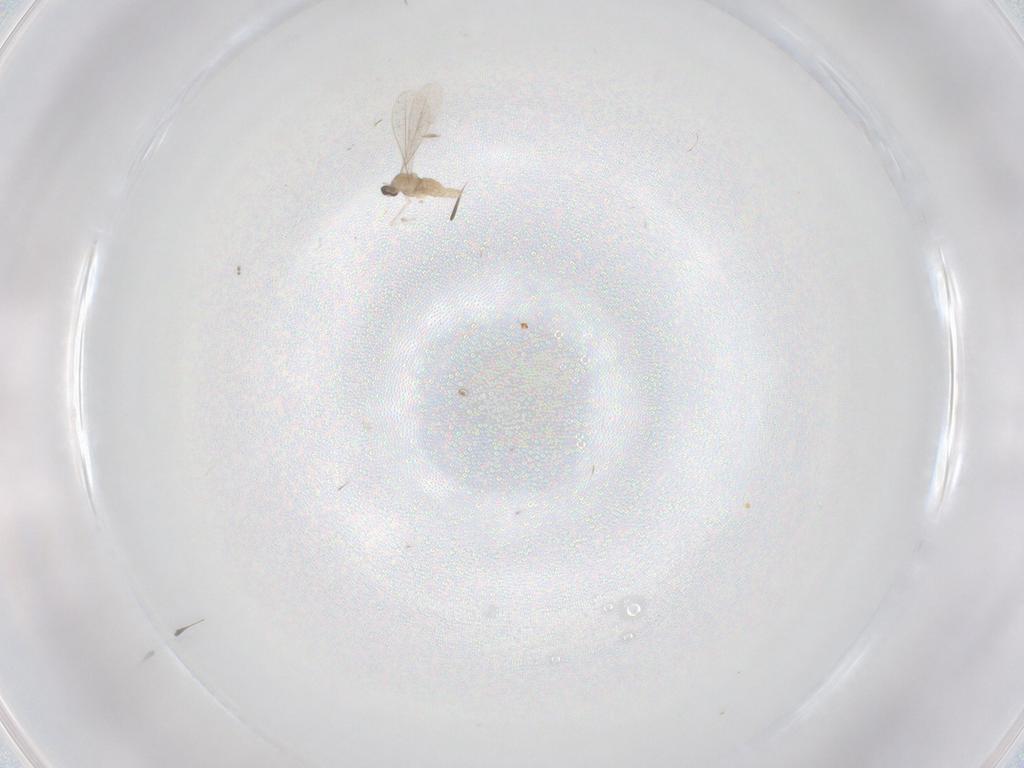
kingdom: Animalia
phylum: Arthropoda
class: Insecta
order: Diptera
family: Cecidomyiidae
